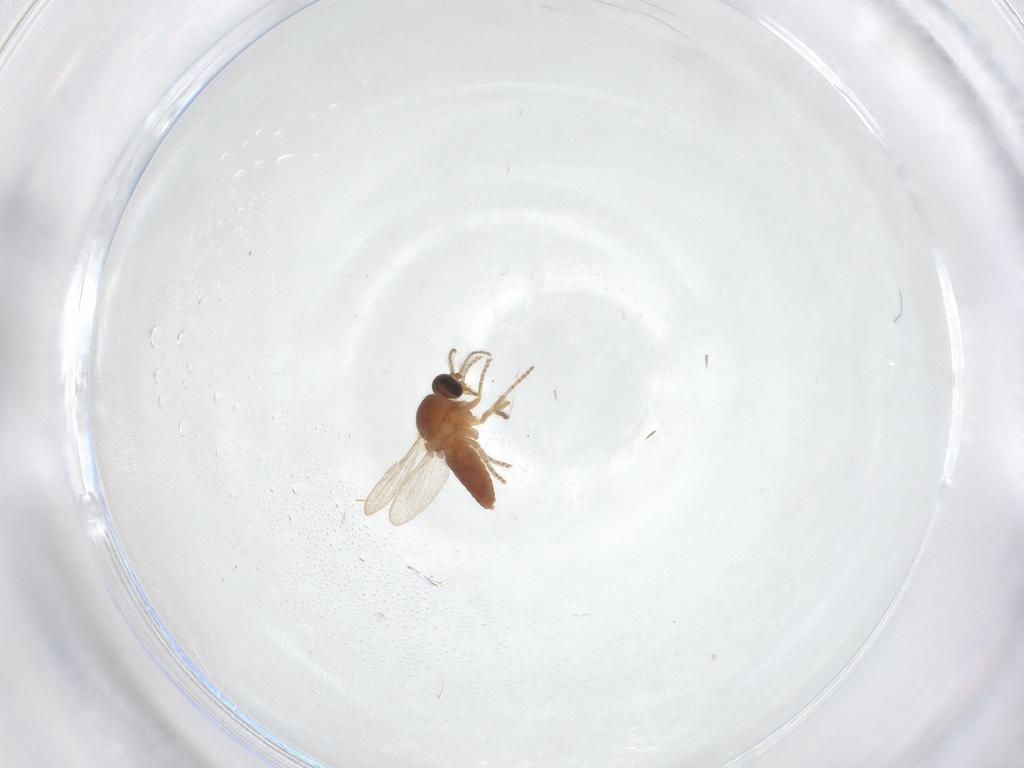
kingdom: Animalia
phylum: Arthropoda
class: Insecta
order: Diptera
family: Ceratopogonidae
